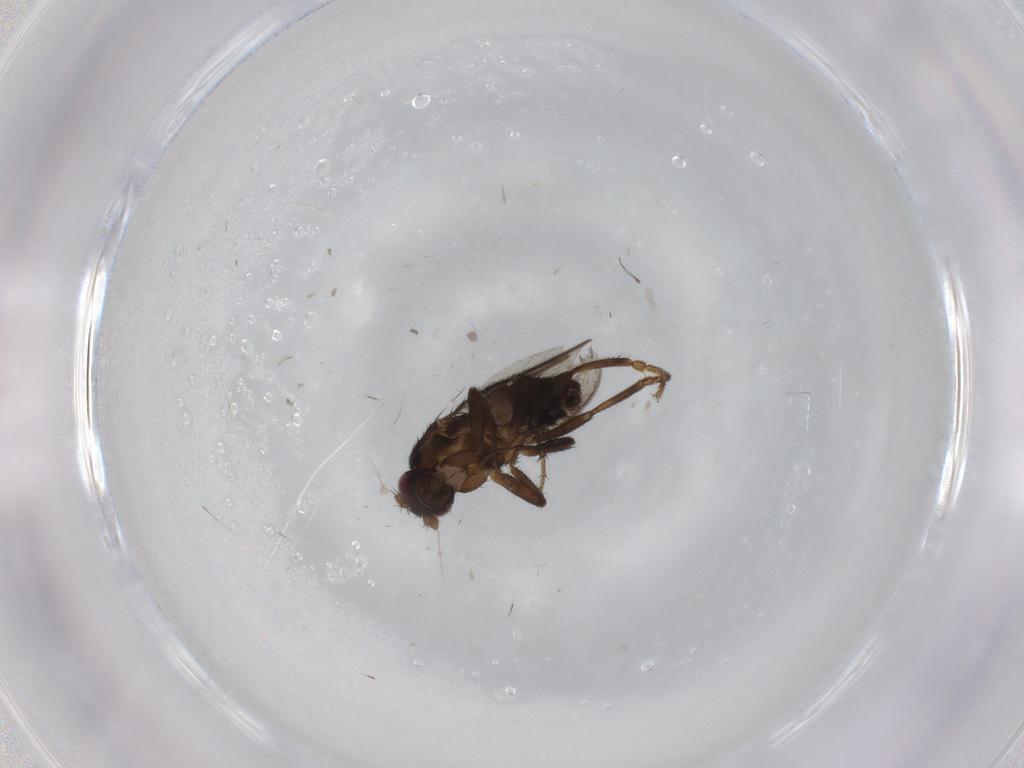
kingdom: Animalia
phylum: Arthropoda
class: Insecta
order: Diptera
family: Sphaeroceridae
